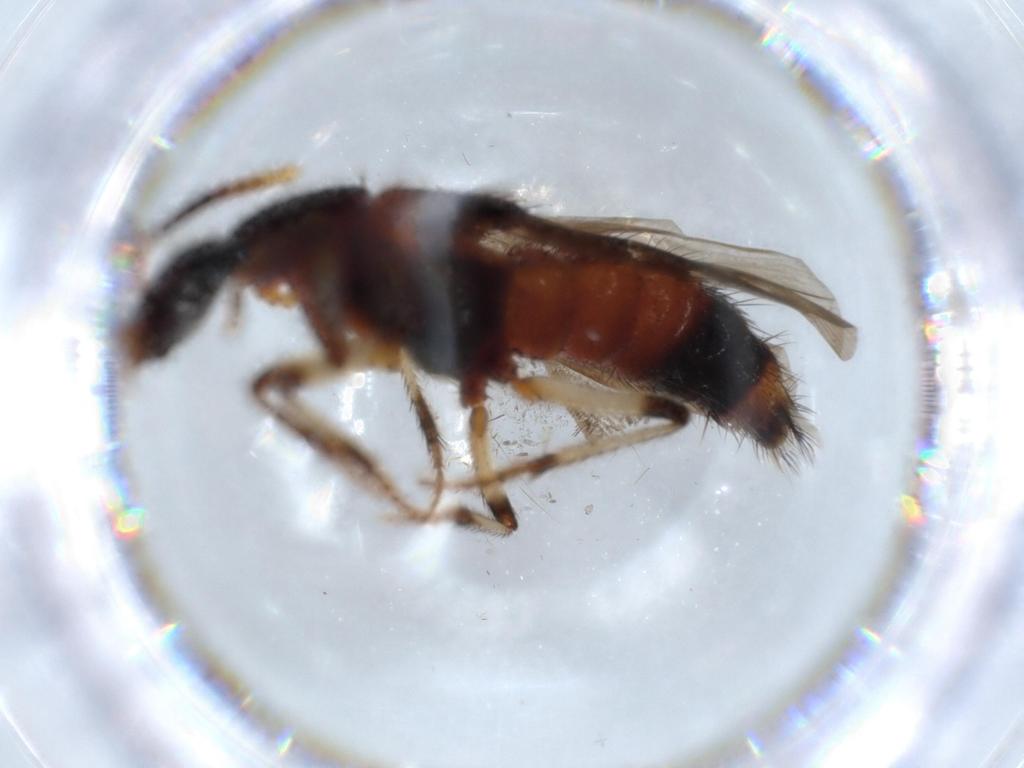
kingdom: Animalia
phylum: Arthropoda
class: Insecta
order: Coleoptera
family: Staphylinidae
